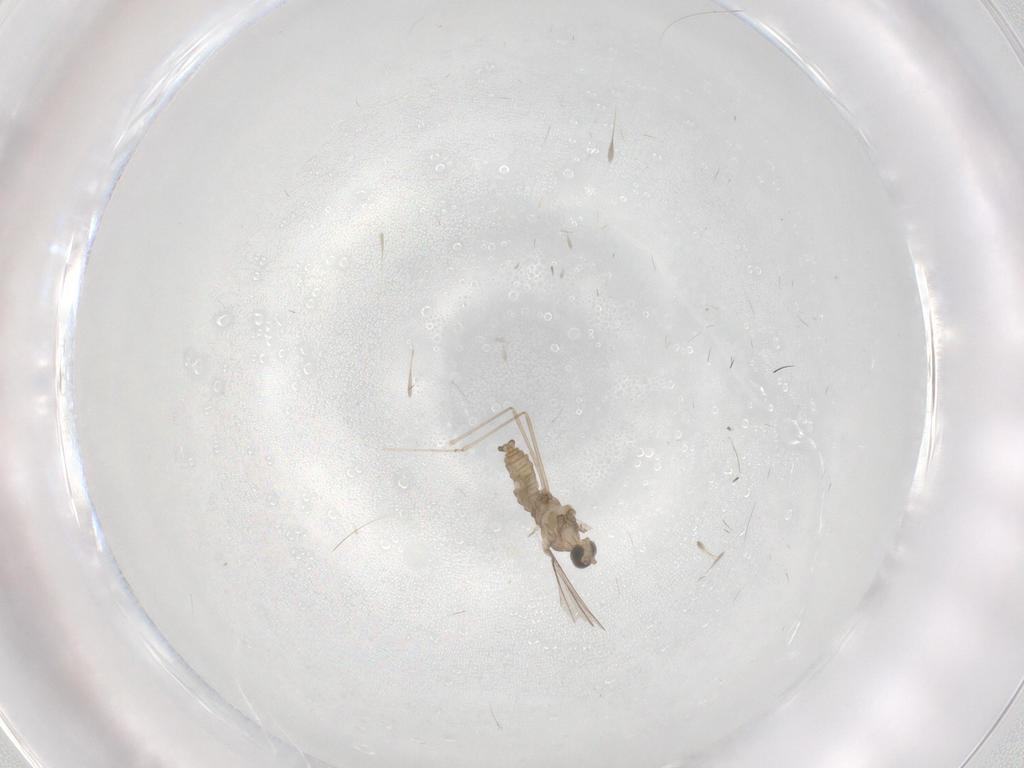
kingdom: Animalia
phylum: Arthropoda
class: Insecta
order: Diptera
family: Cecidomyiidae
